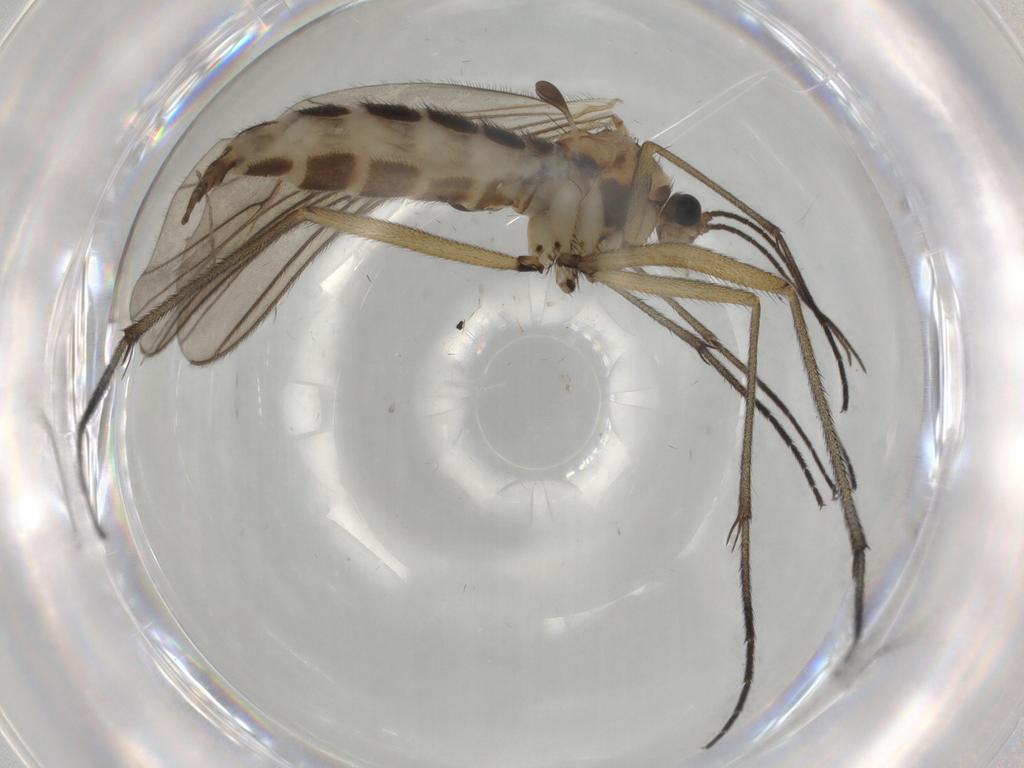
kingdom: Animalia
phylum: Arthropoda
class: Insecta
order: Diptera
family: Sciaridae
